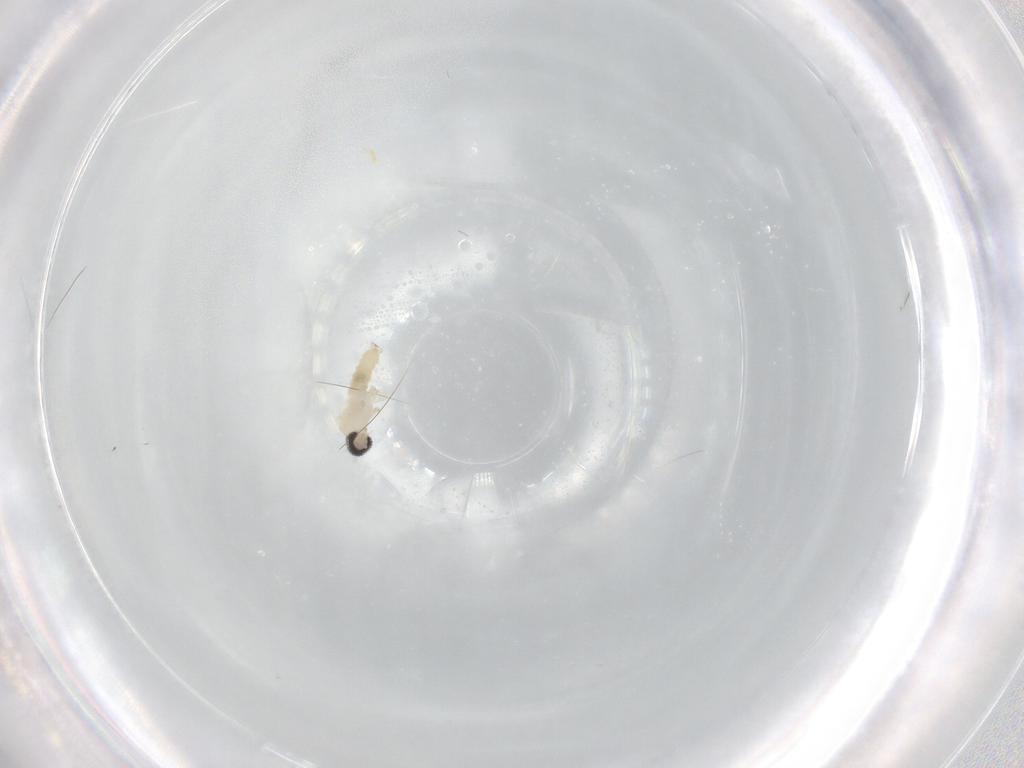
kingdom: Animalia
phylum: Arthropoda
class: Insecta
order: Diptera
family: Cecidomyiidae
